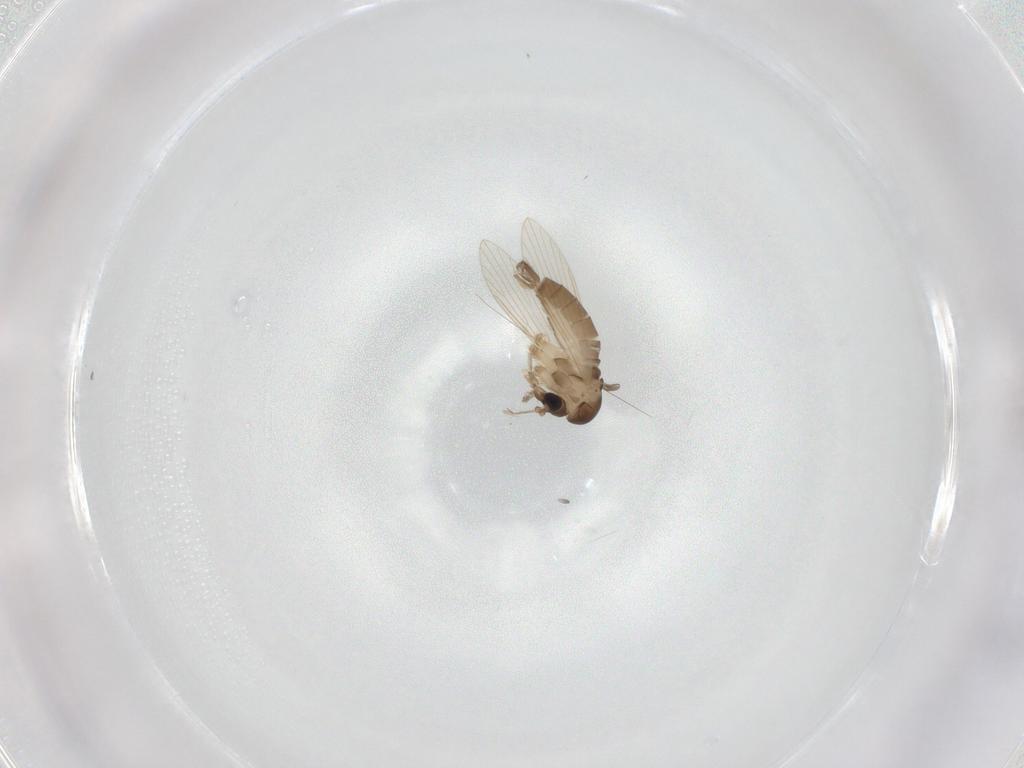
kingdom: Animalia
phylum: Arthropoda
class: Insecta
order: Diptera
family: Psychodidae
